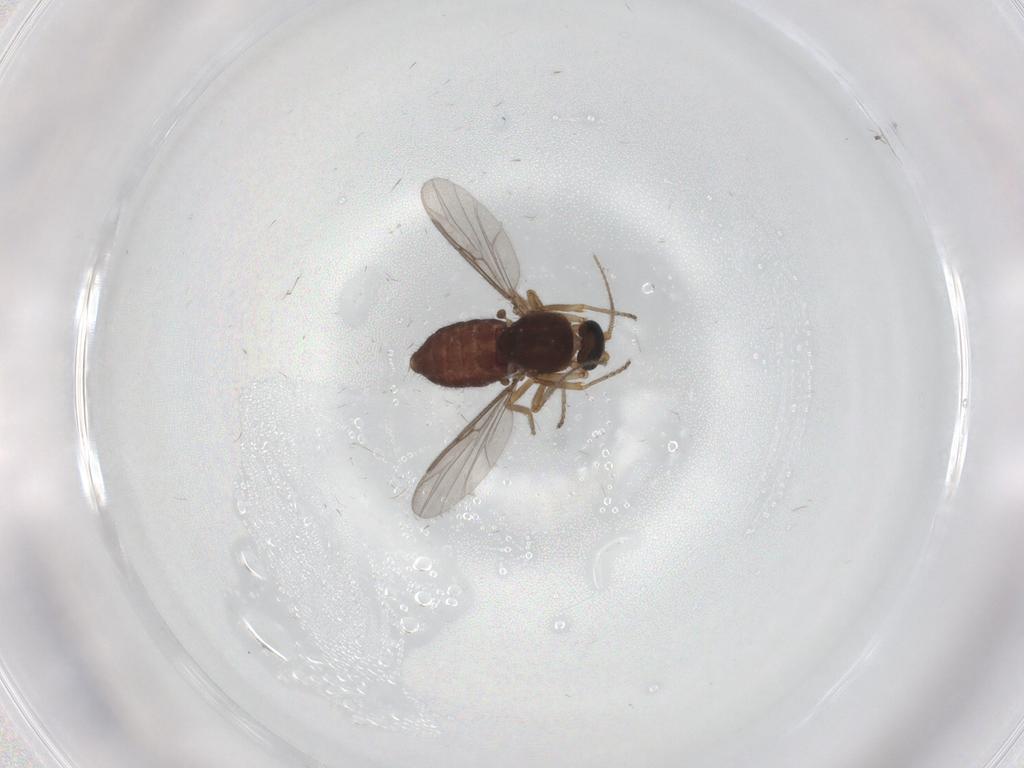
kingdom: Animalia
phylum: Arthropoda
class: Insecta
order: Diptera
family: Ceratopogonidae
